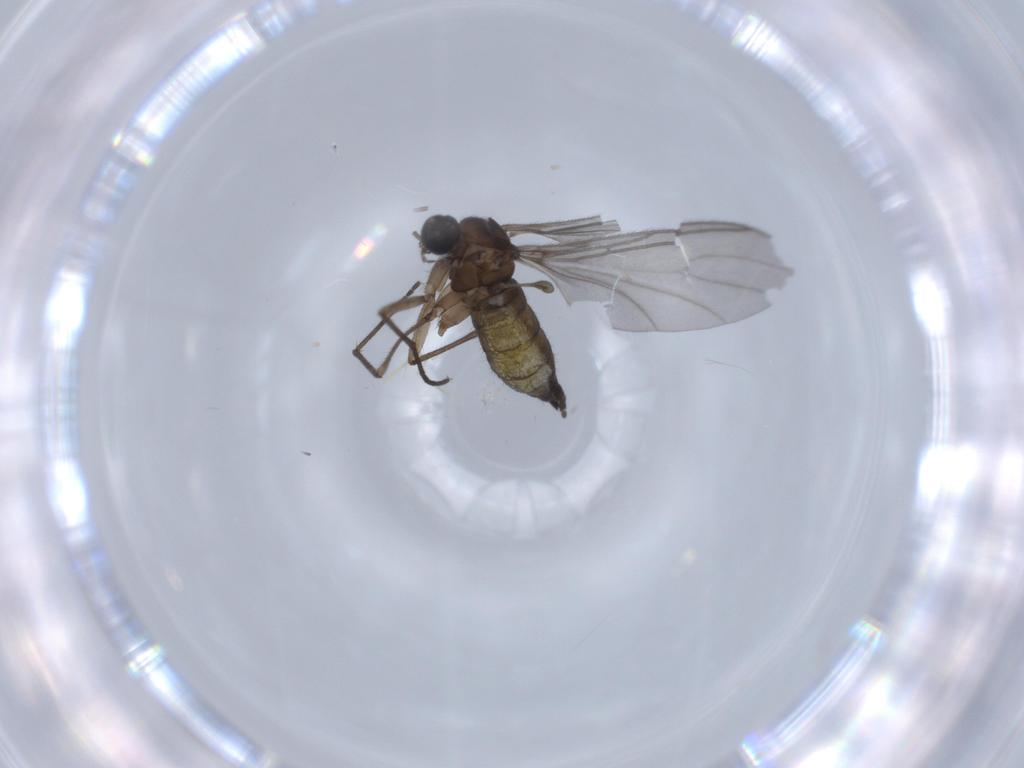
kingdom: Animalia
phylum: Arthropoda
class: Insecta
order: Diptera
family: Sciaridae
